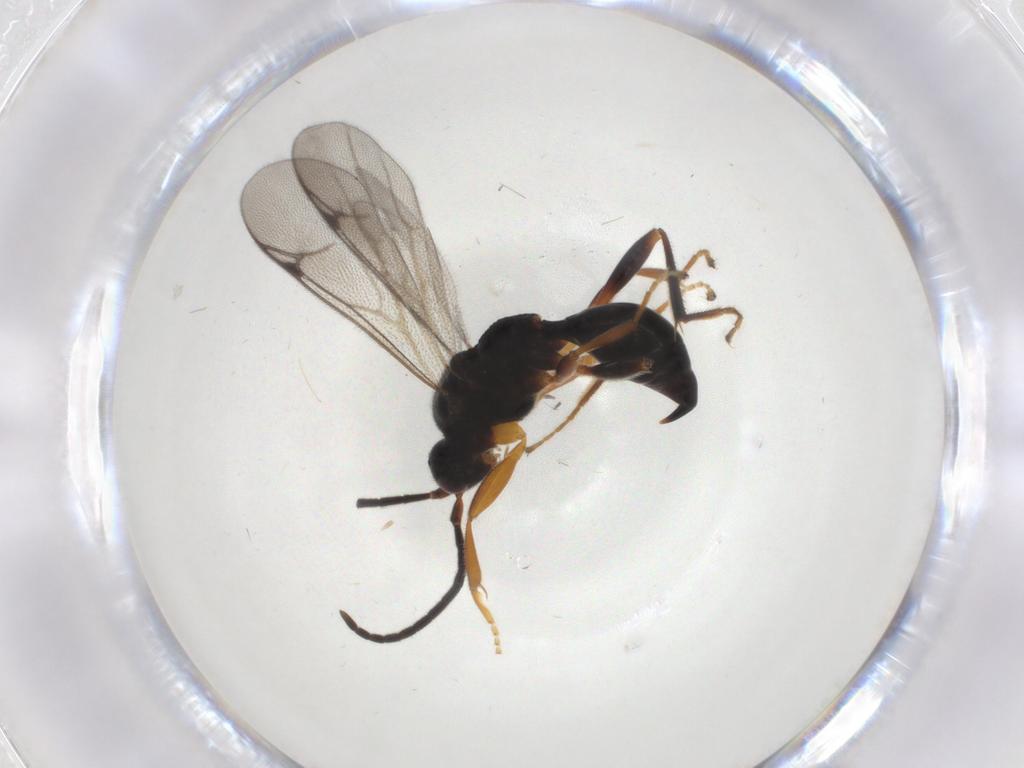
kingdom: Animalia
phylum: Arthropoda
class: Insecta
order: Hymenoptera
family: Proctotrupidae
